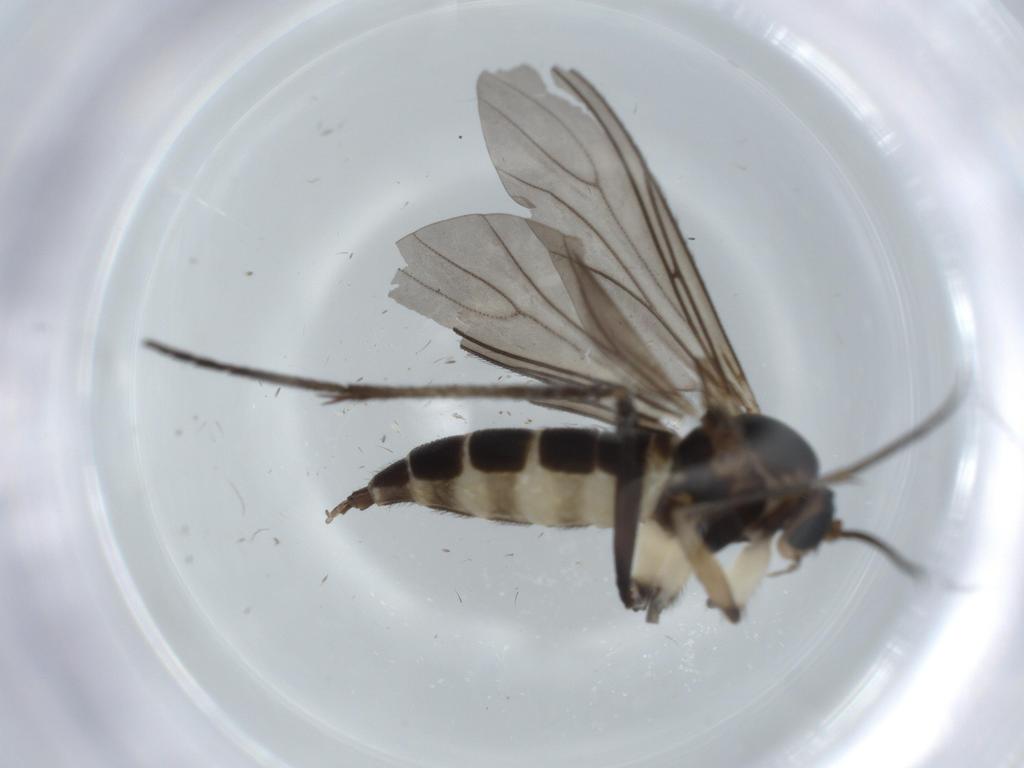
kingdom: Animalia
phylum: Arthropoda
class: Insecta
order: Diptera
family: Sciaridae
